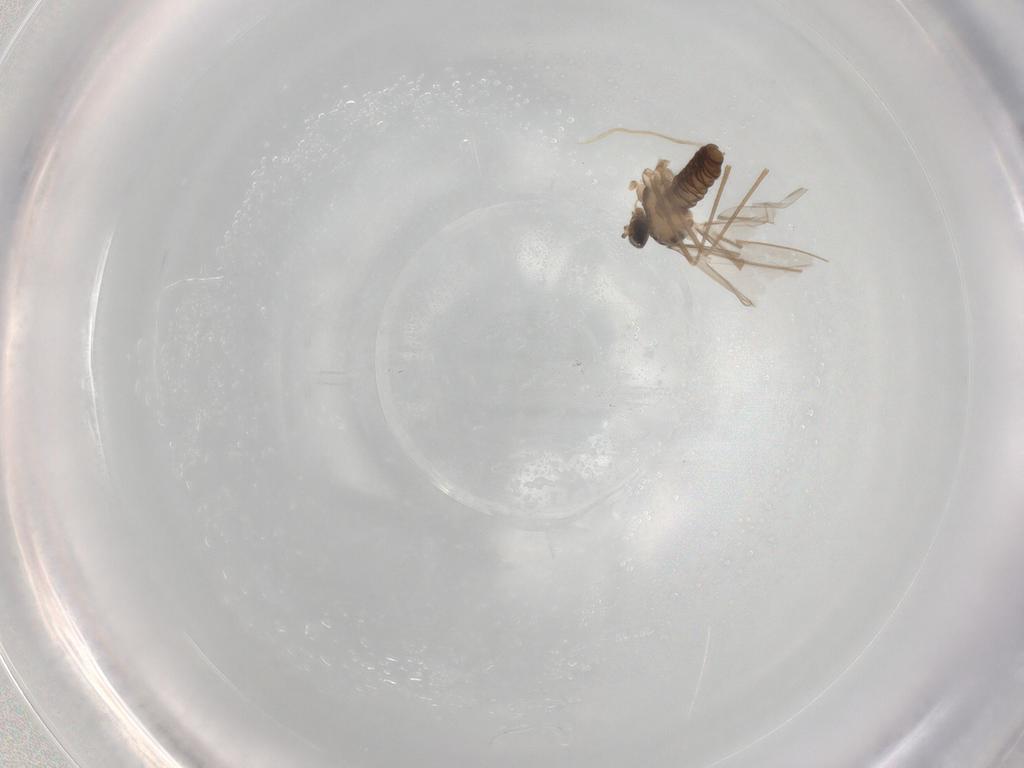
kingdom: Animalia
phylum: Arthropoda
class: Insecta
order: Diptera
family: Cecidomyiidae
